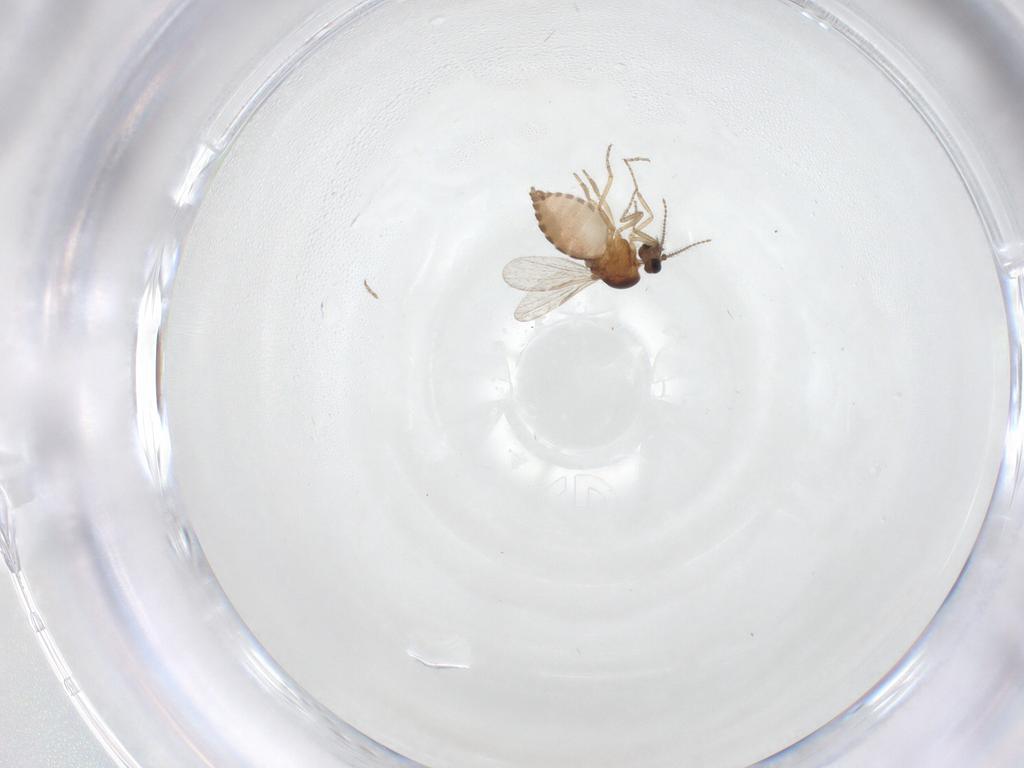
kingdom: Animalia
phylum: Arthropoda
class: Insecta
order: Diptera
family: Ceratopogonidae
